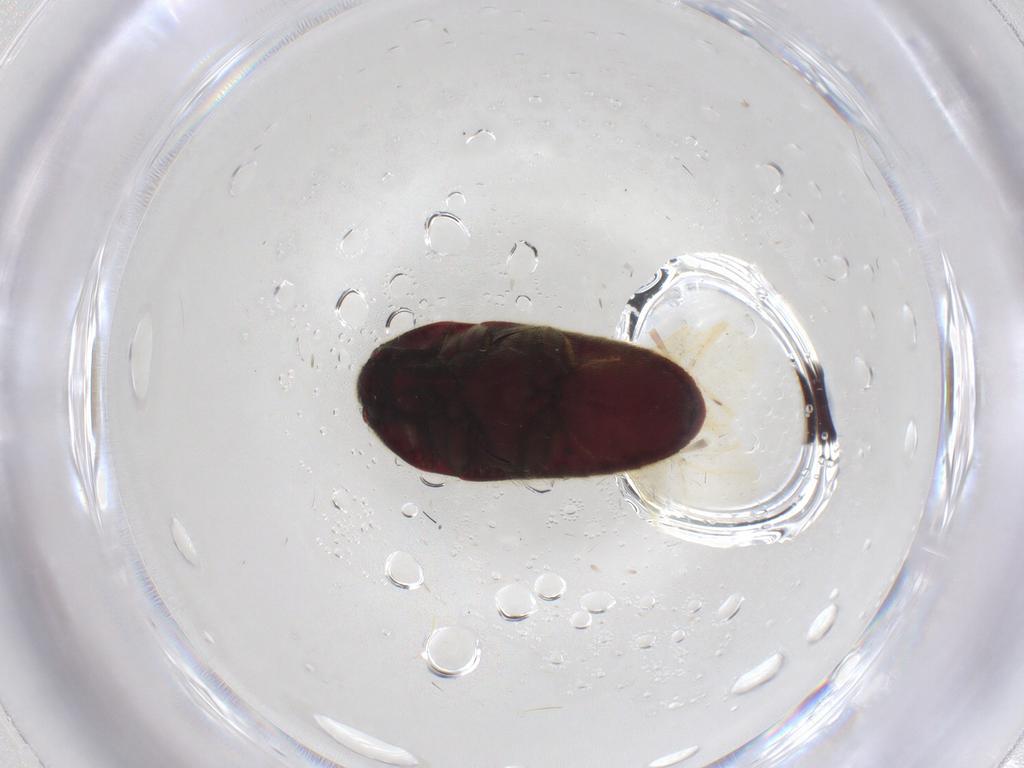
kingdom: Animalia
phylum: Arthropoda
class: Insecta
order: Coleoptera
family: Throscidae
